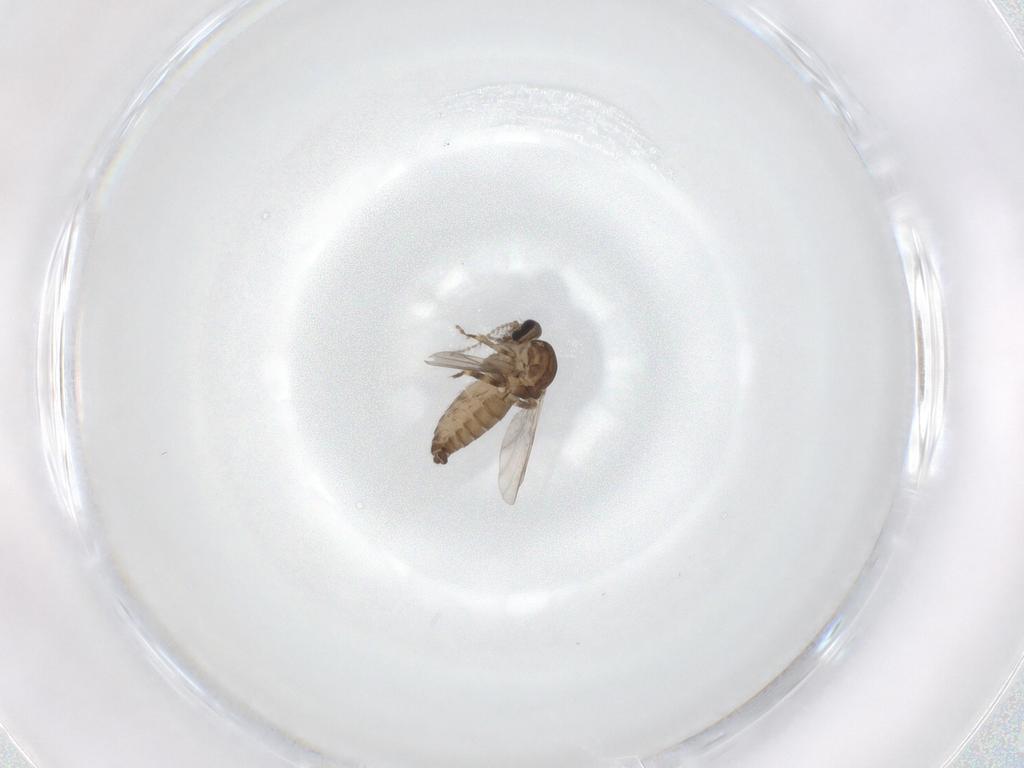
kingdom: Animalia
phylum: Arthropoda
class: Insecta
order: Diptera
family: Ceratopogonidae
